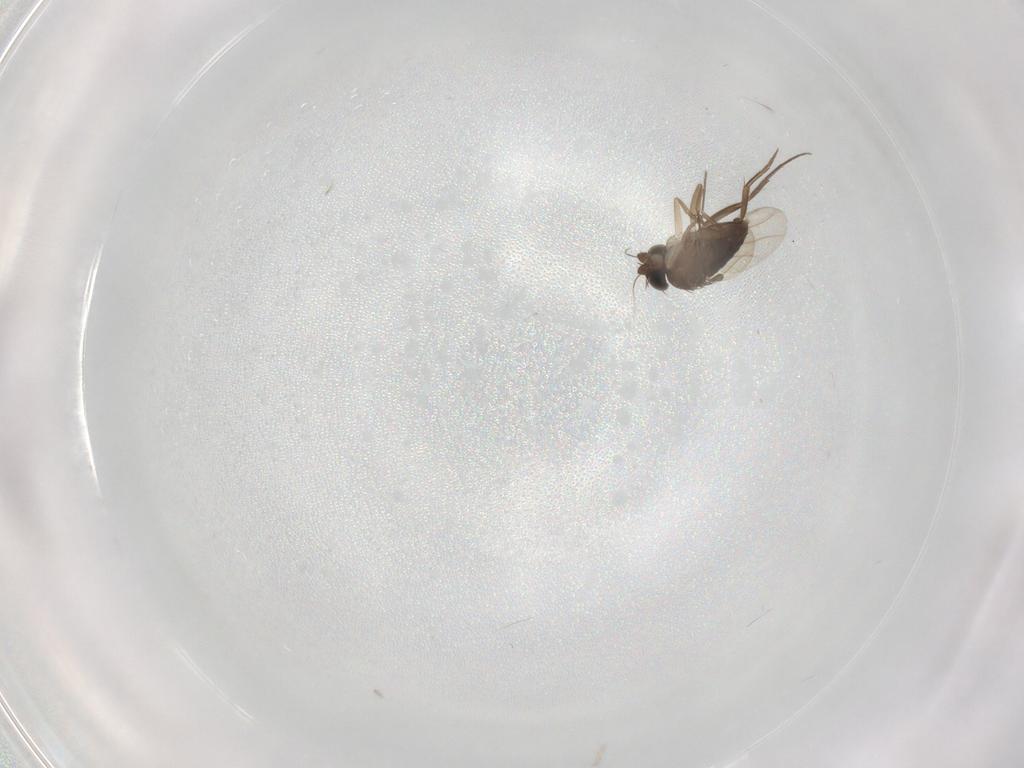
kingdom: Animalia
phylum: Arthropoda
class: Insecta
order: Diptera
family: Phoridae
